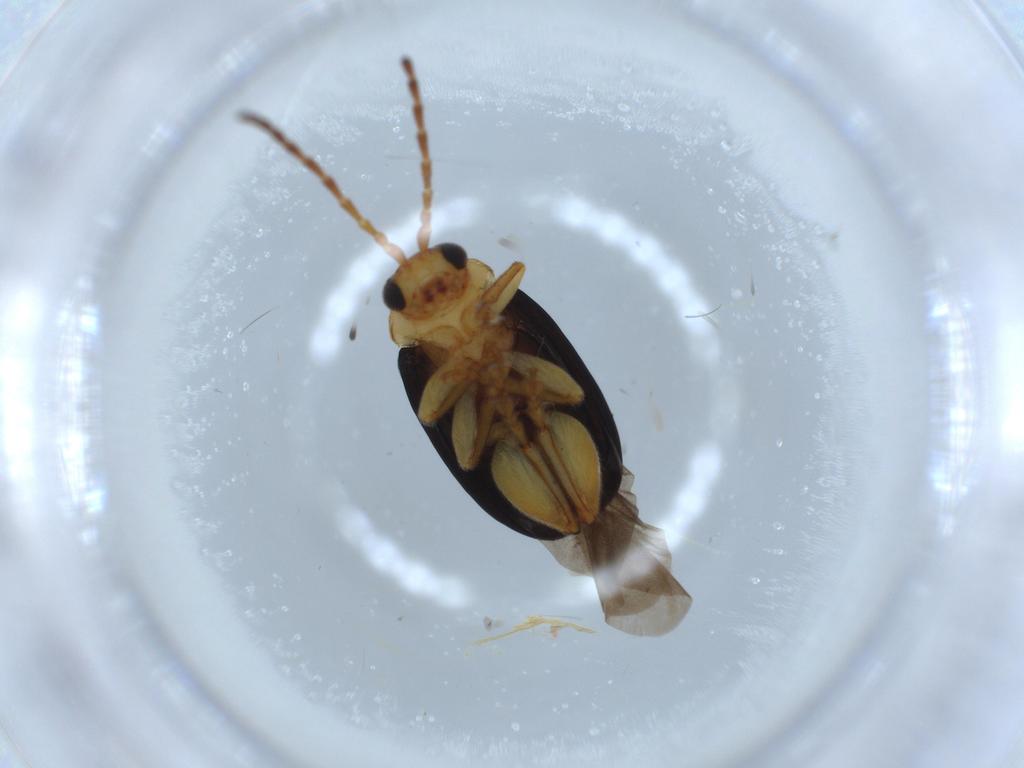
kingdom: Animalia
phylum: Arthropoda
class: Insecta
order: Coleoptera
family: Chrysomelidae
